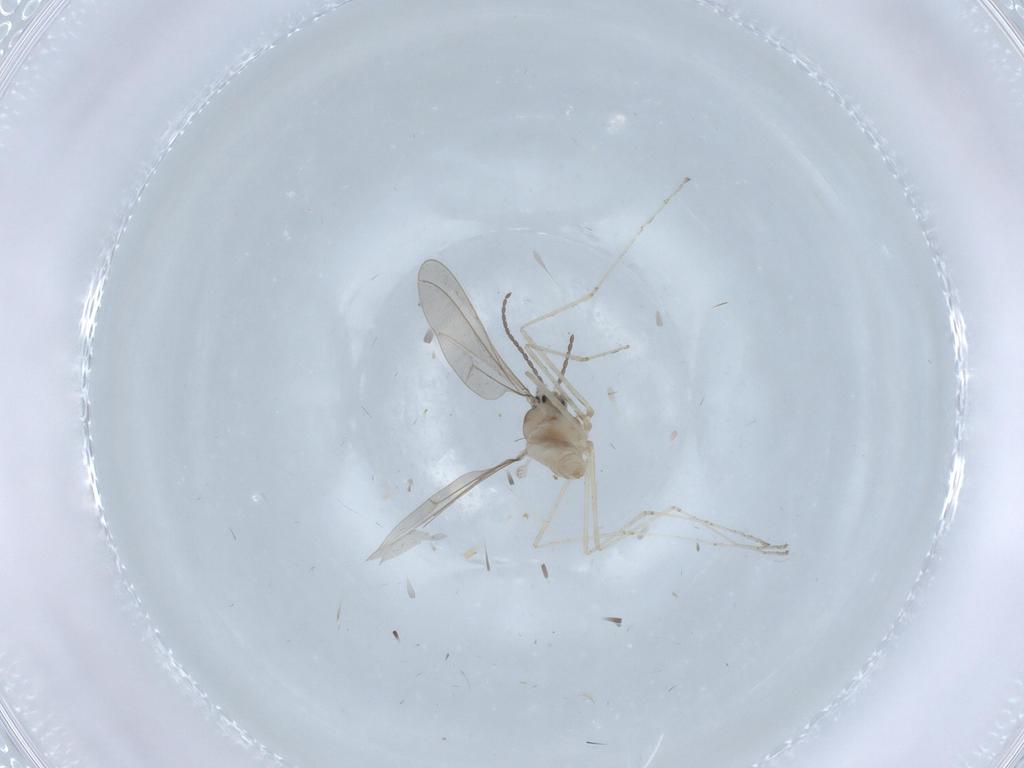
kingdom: Animalia
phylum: Arthropoda
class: Insecta
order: Diptera
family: Cecidomyiidae
